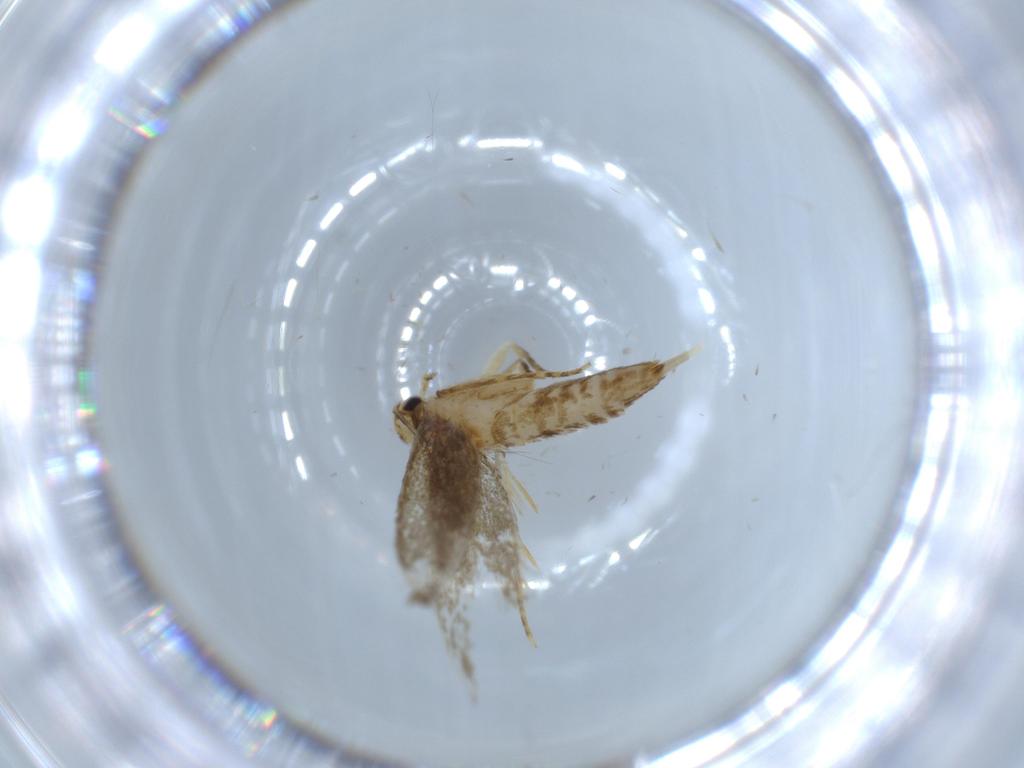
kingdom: Animalia
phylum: Arthropoda
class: Insecta
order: Lepidoptera
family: Tineidae
